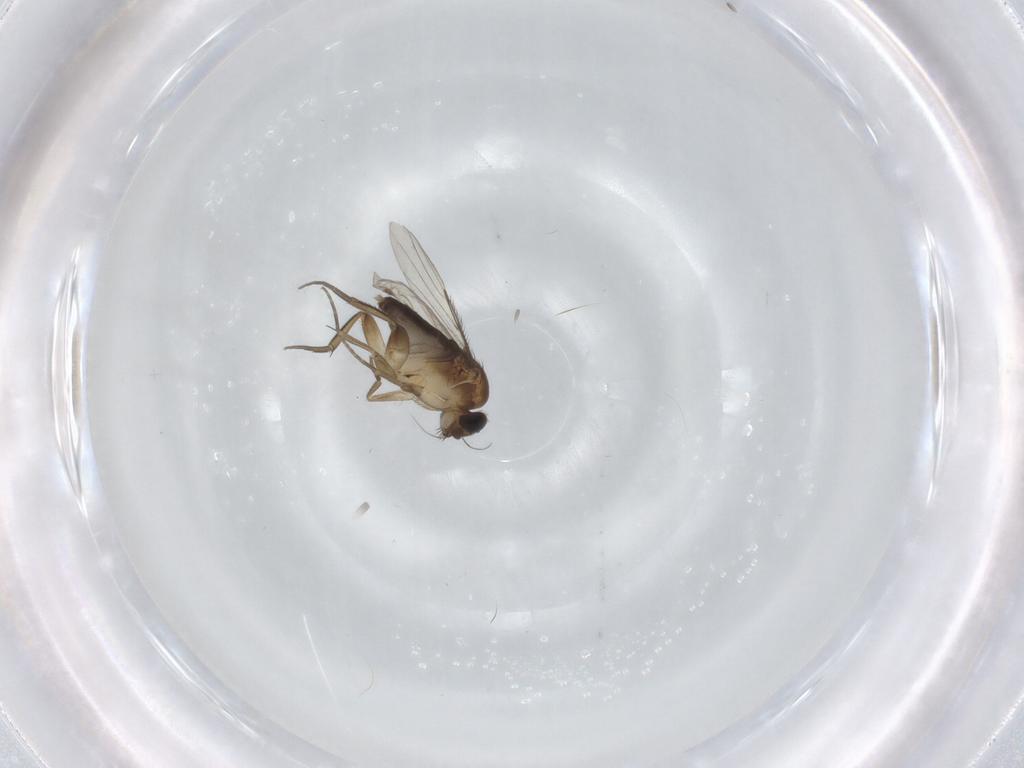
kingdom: Animalia
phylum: Arthropoda
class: Insecta
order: Diptera
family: Phoridae
